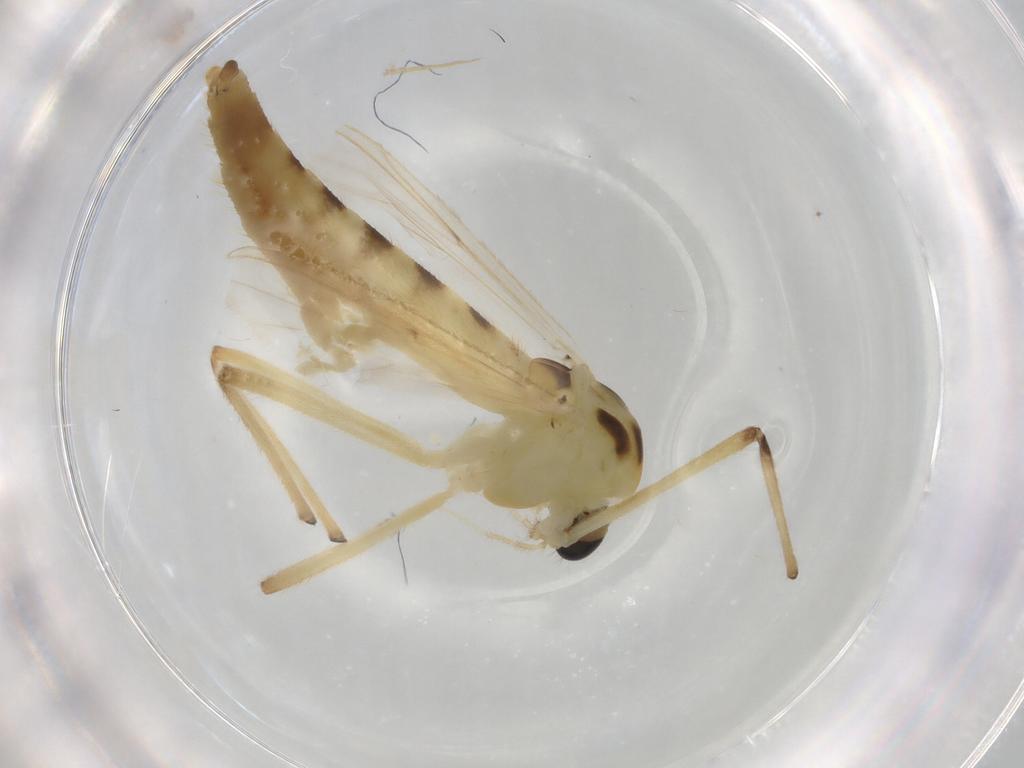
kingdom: Animalia
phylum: Arthropoda
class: Insecta
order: Diptera
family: Chironomidae
